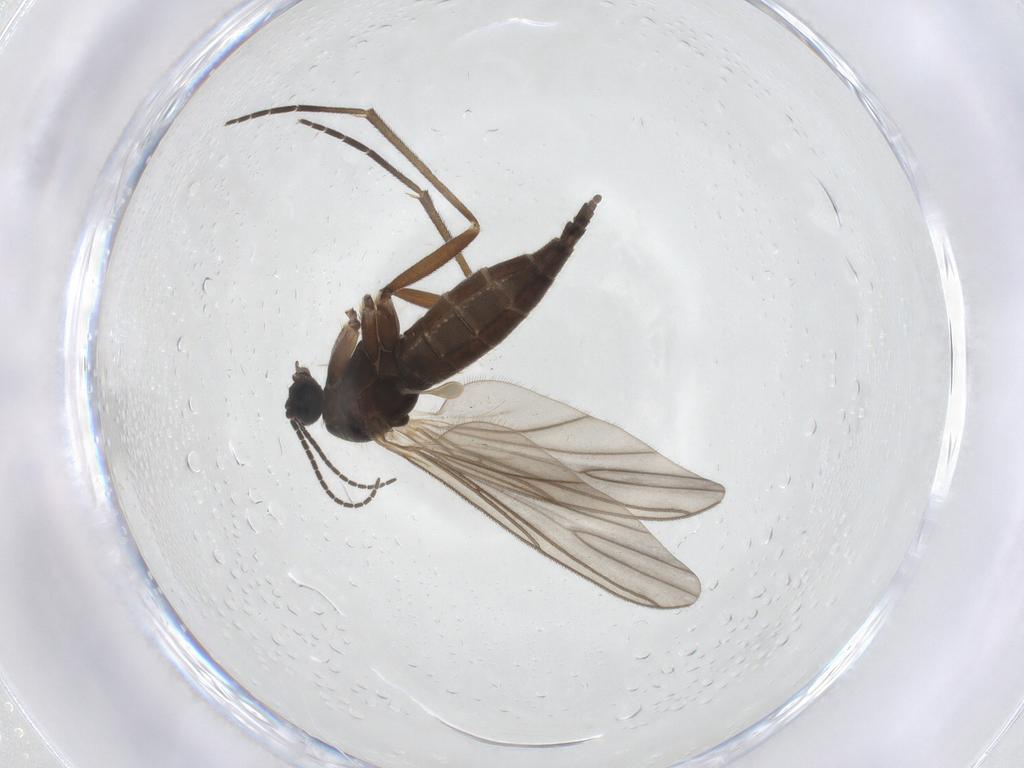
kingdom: Animalia
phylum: Arthropoda
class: Insecta
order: Diptera
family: Sciaridae
